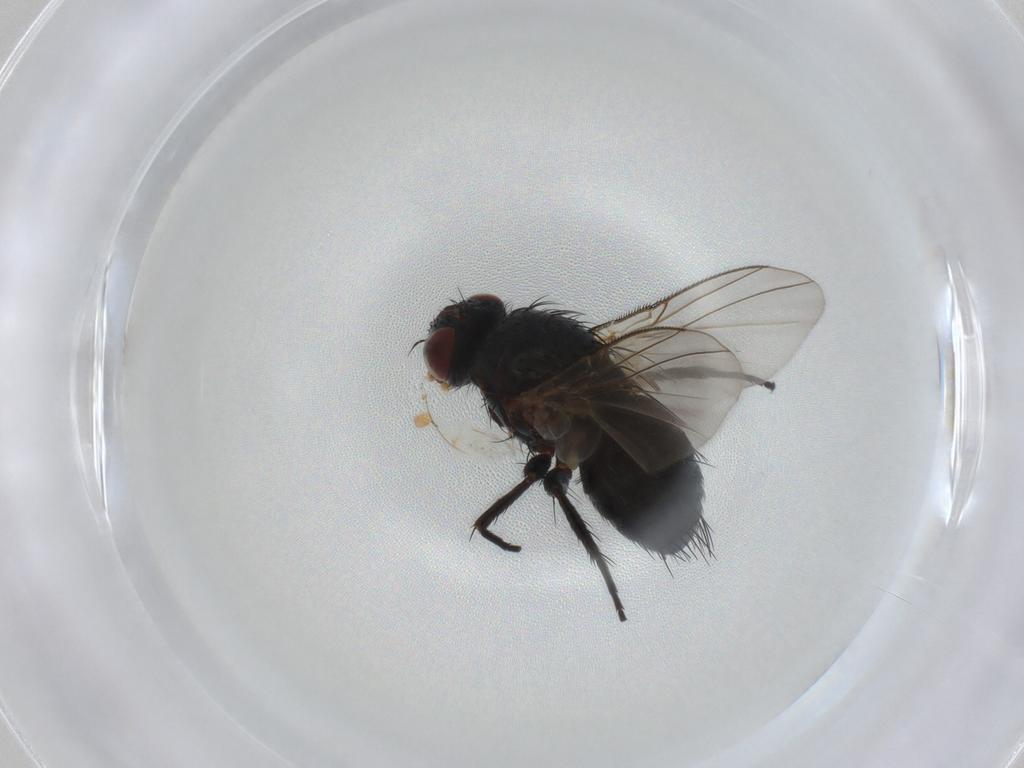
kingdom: Animalia
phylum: Arthropoda
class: Insecta
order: Diptera
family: Tachinidae
